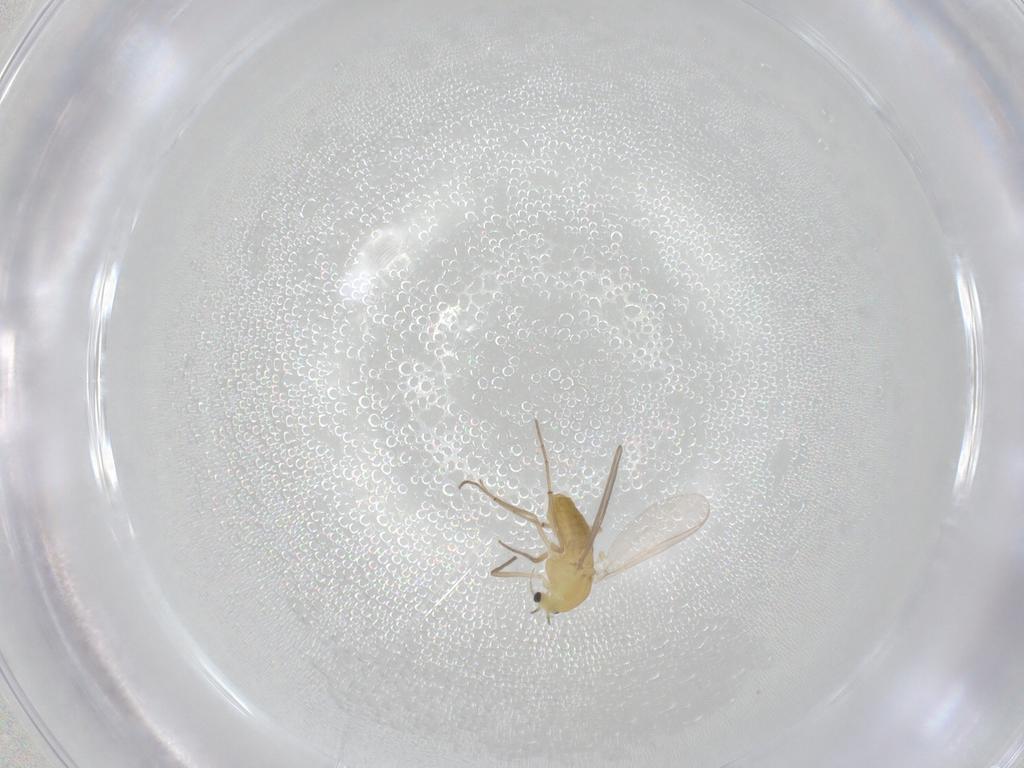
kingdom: Animalia
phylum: Arthropoda
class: Insecta
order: Diptera
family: Chironomidae
